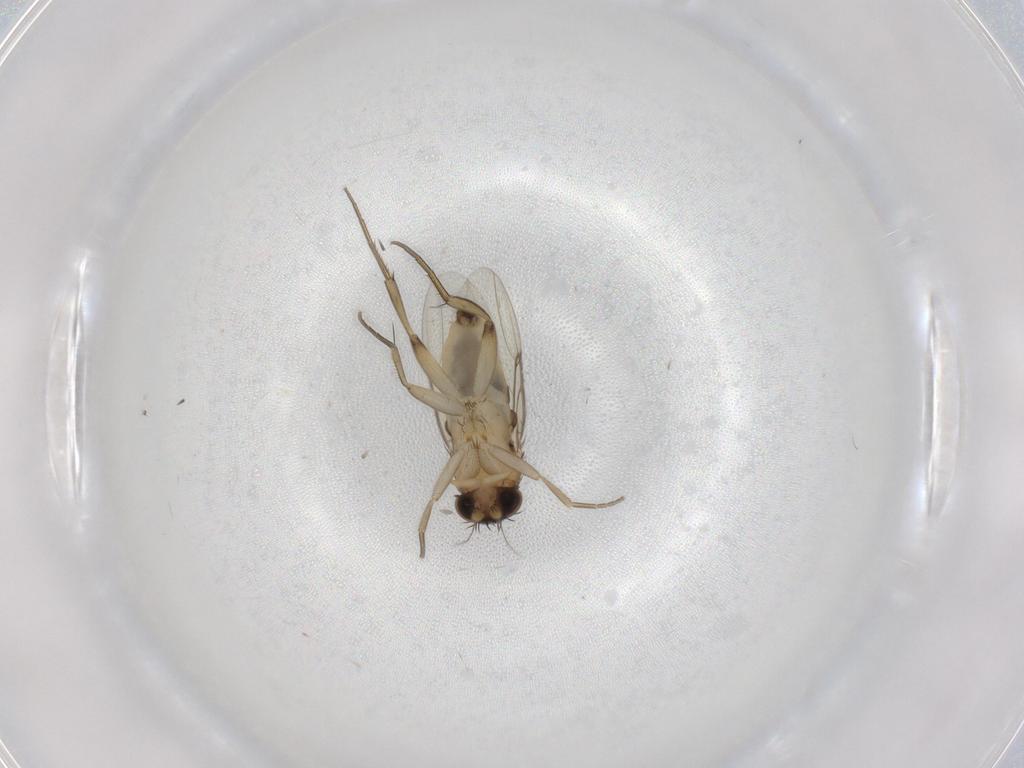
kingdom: Animalia
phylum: Arthropoda
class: Insecta
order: Diptera
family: Phoridae
